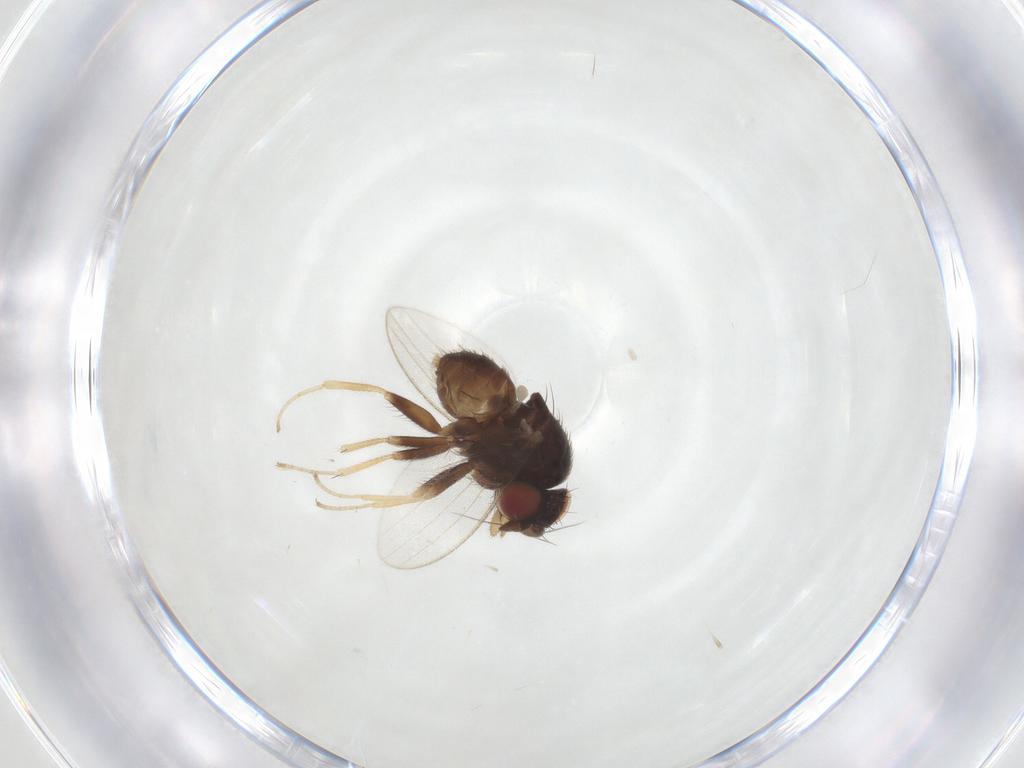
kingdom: Animalia
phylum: Arthropoda
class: Insecta
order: Diptera
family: Milichiidae
